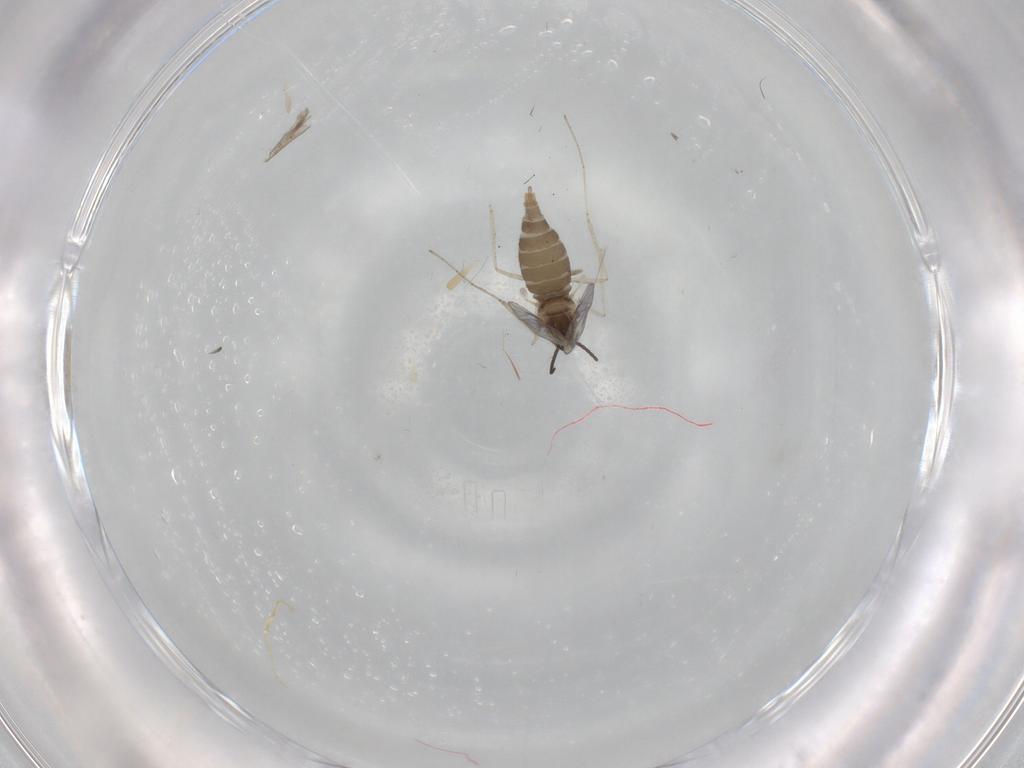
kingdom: Animalia
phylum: Arthropoda
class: Insecta
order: Diptera
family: Cecidomyiidae
